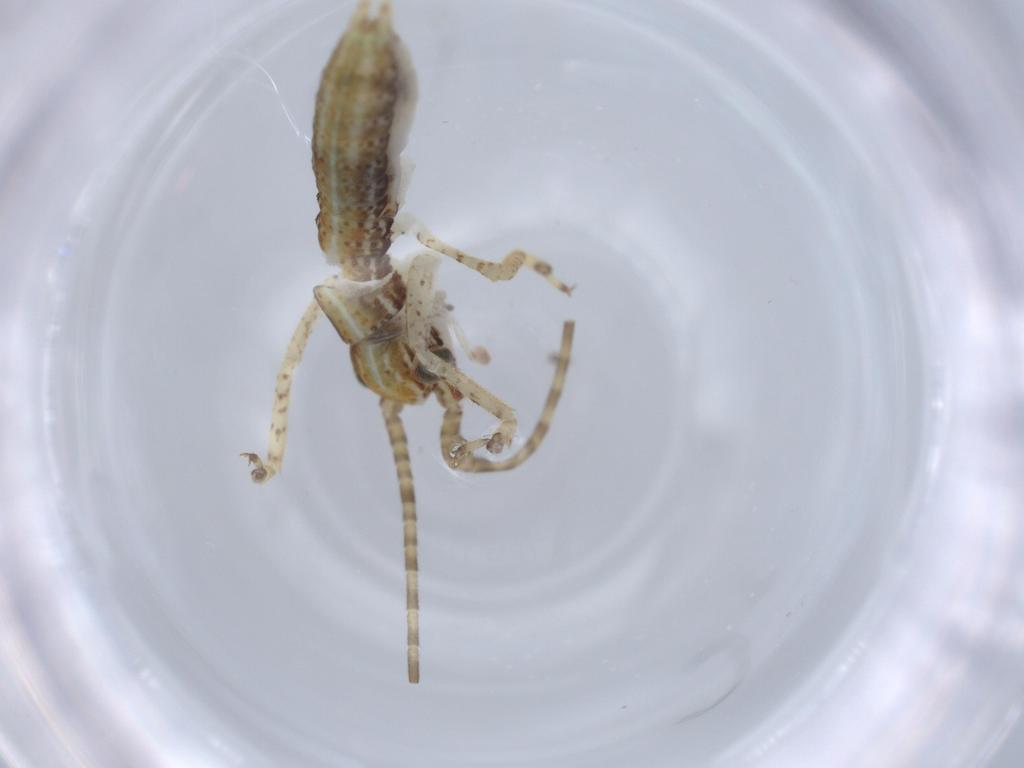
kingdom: Animalia
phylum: Arthropoda
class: Insecta
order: Orthoptera
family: Gryllidae
